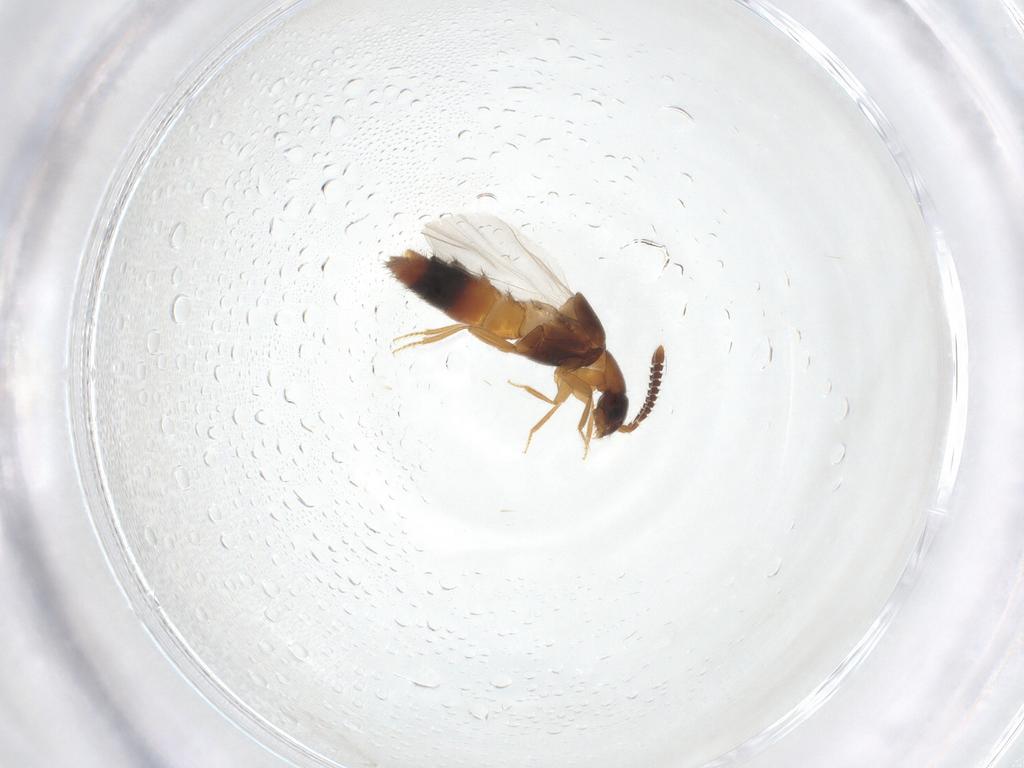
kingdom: Animalia
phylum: Arthropoda
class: Insecta
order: Coleoptera
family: Staphylinidae
